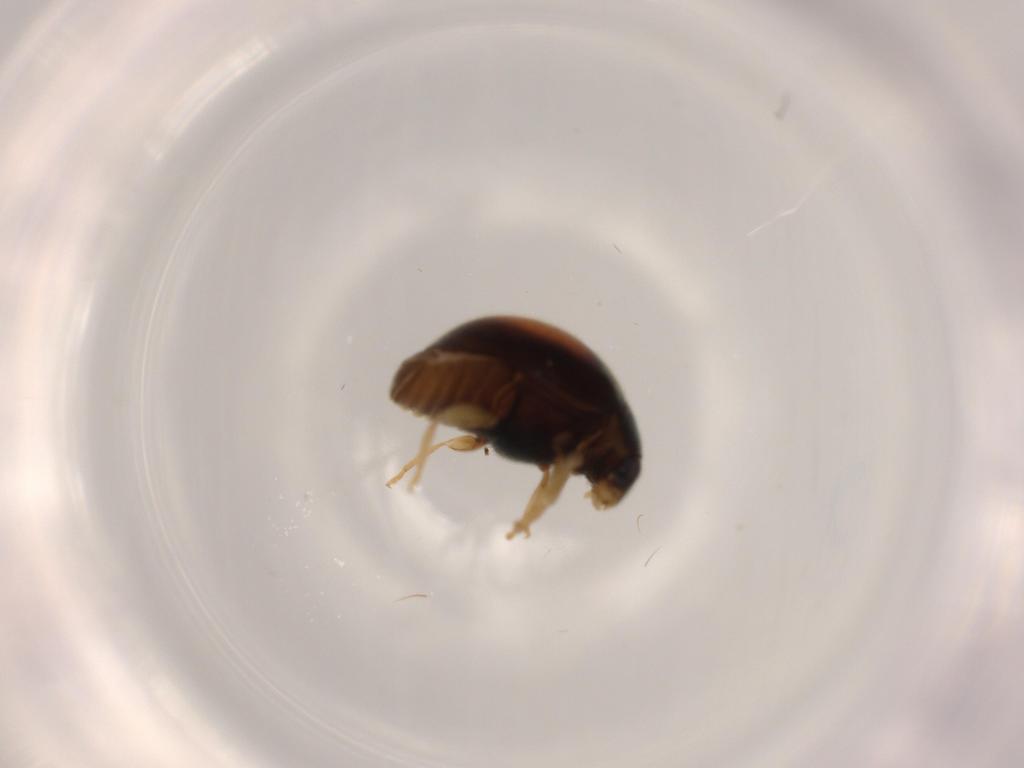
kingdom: Animalia
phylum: Arthropoda
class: Insecta
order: Coleoptera
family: Coccinellidae
